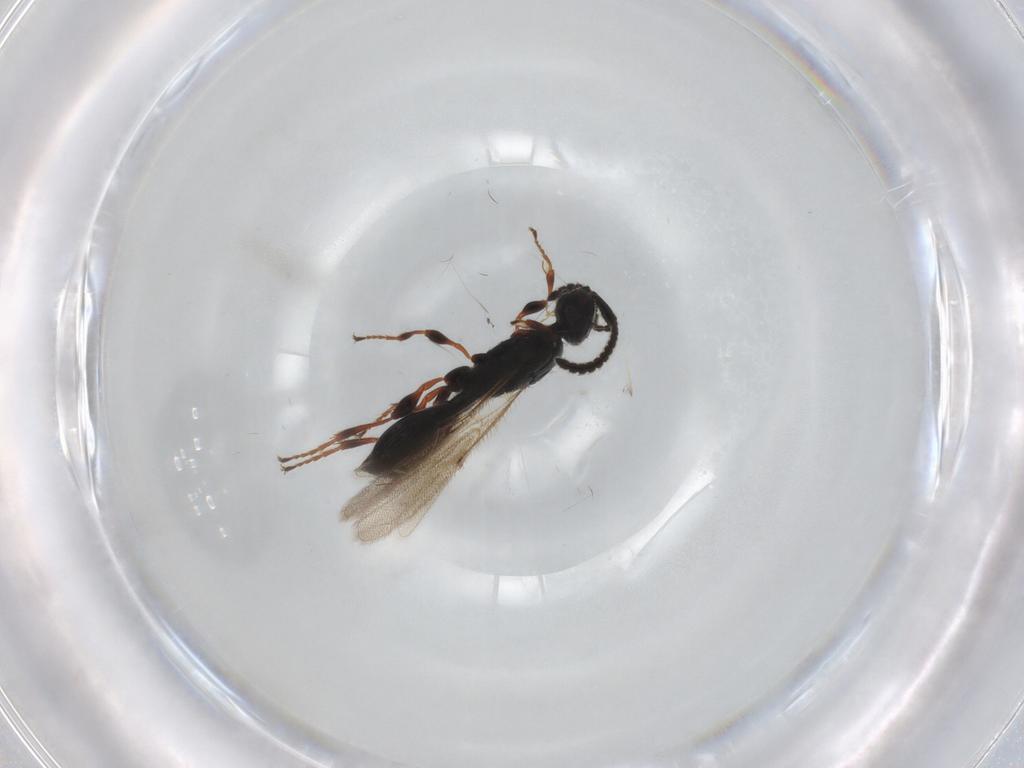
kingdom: Animalia
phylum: Arthropoda
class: Insecta
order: Hymenoptera
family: Diapriidae
